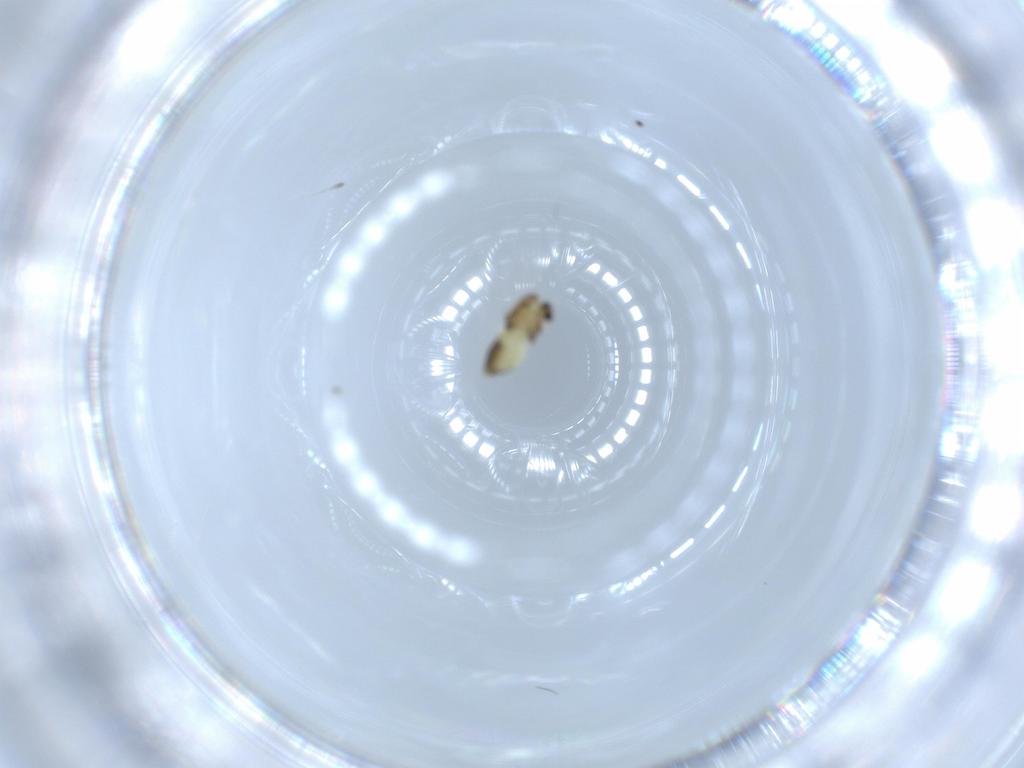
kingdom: Animalia
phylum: Arthropoda
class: Insecta
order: Diptera
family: Chironomidae
